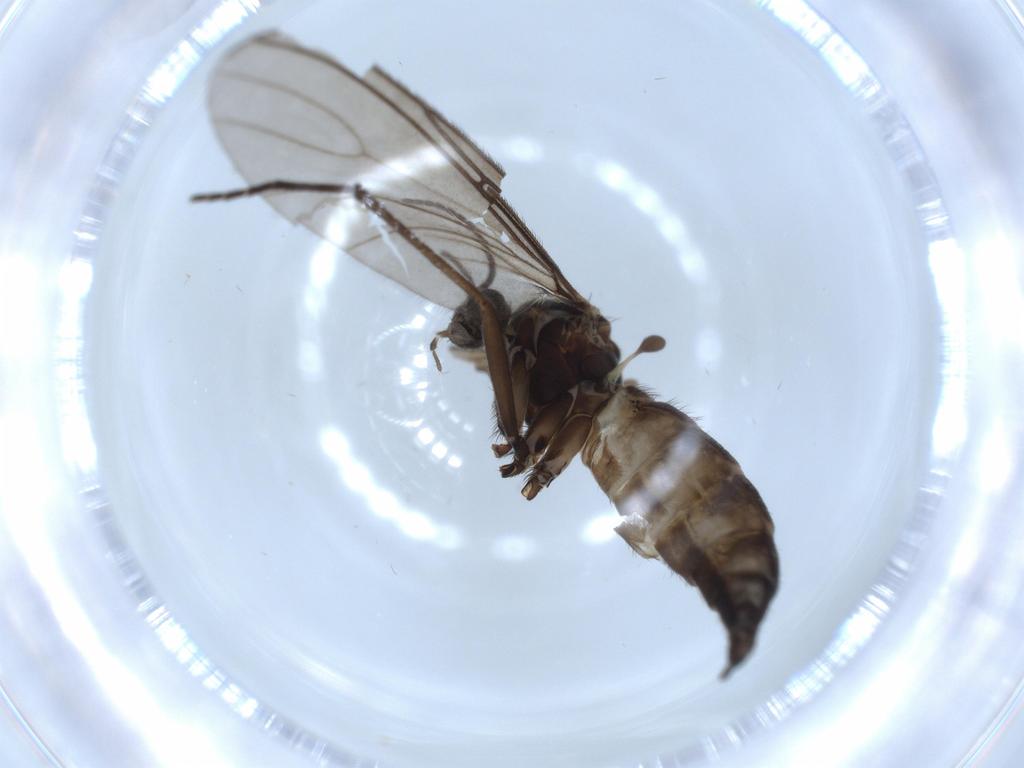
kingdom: Animalia
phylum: Arthropoda
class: Insecta
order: Diptera
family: Sciaridae
